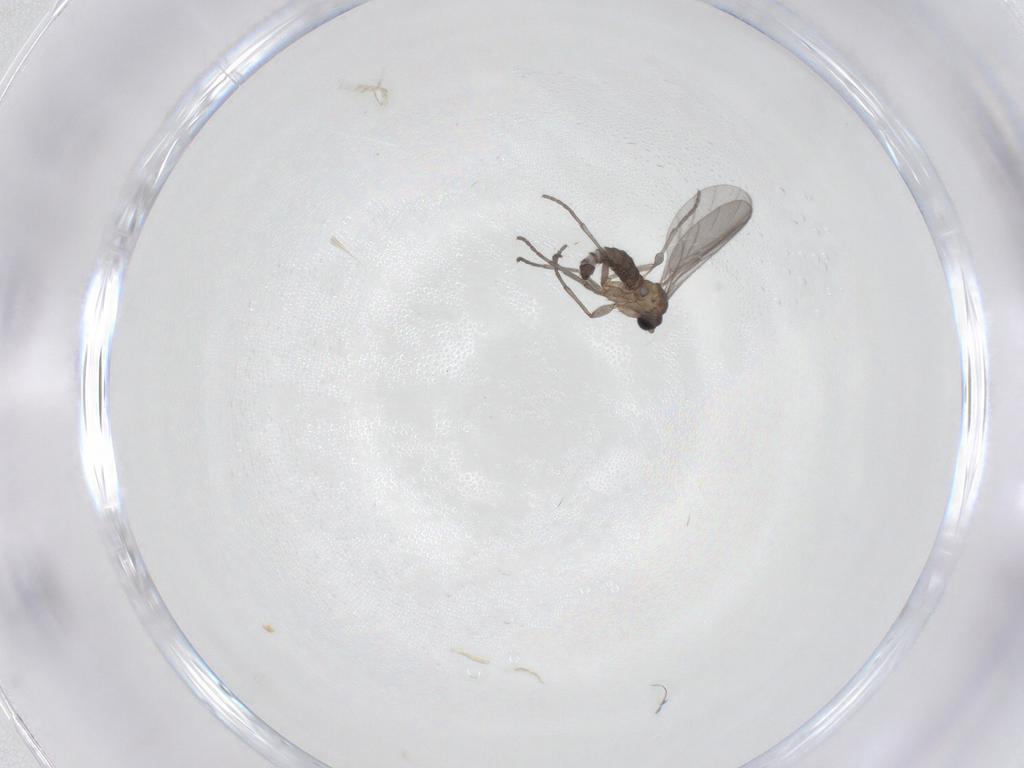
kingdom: Animalia
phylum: Arthropoda
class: Insecta
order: Diptera
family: Sciaridae
